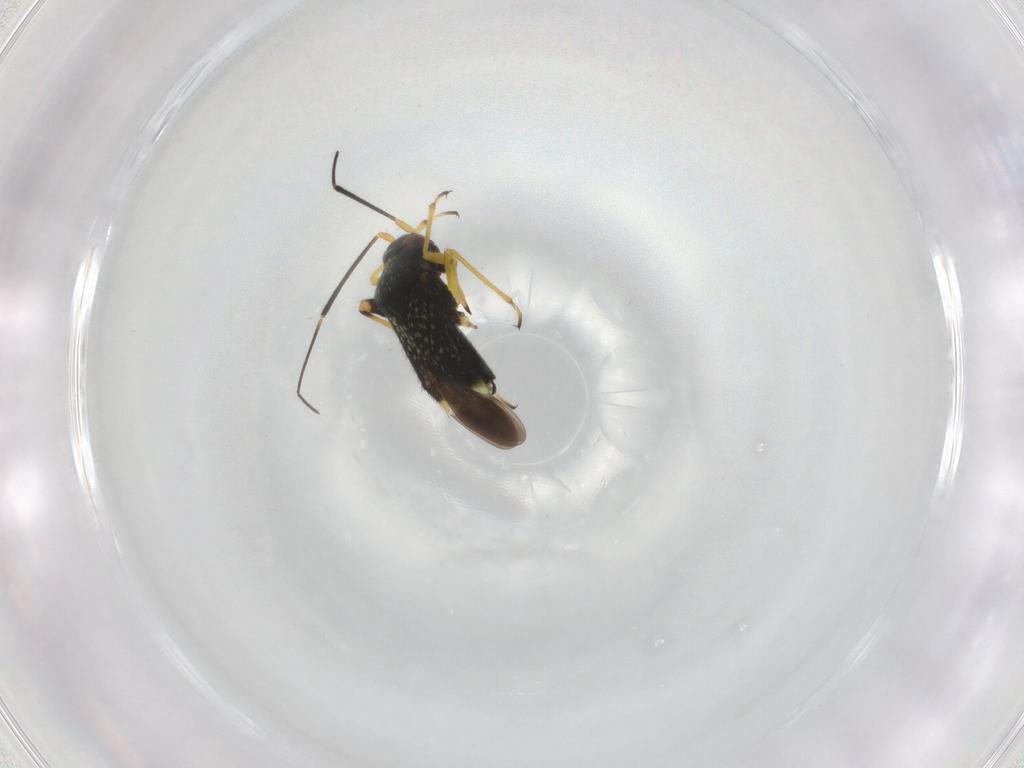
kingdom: Animalia
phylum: Arthropoda
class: Insecta
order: Hemiptera
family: Miridae
